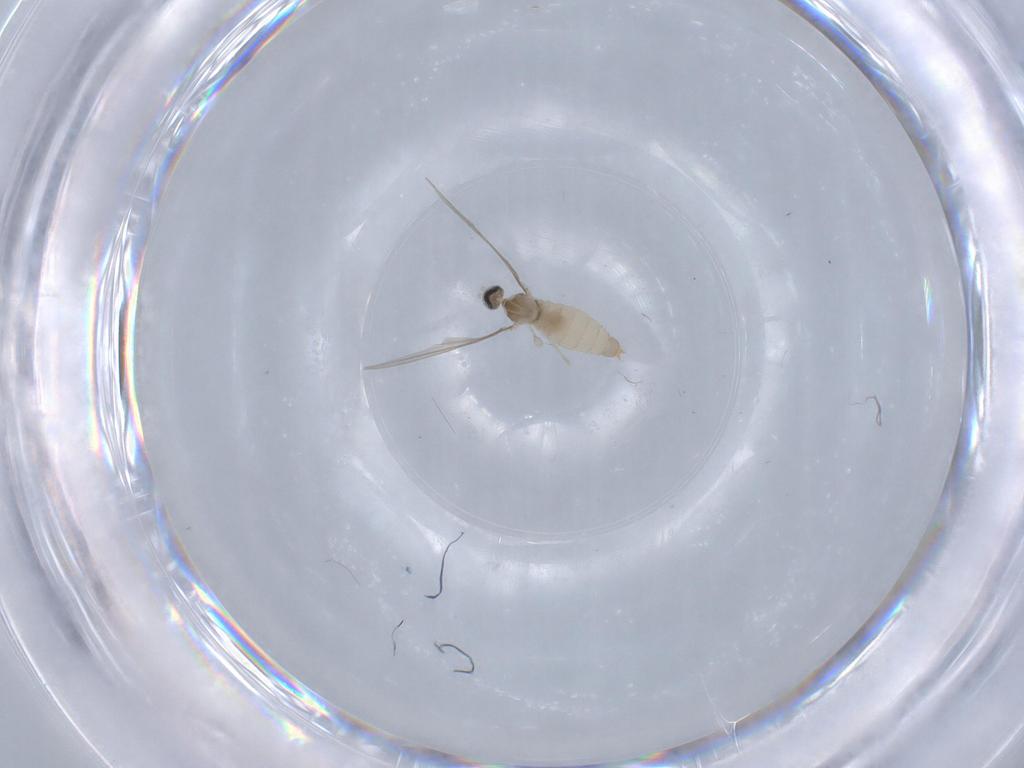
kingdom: Animalia
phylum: Arthropoda
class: Insecta
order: Diptera
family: Cecidomyiidae
